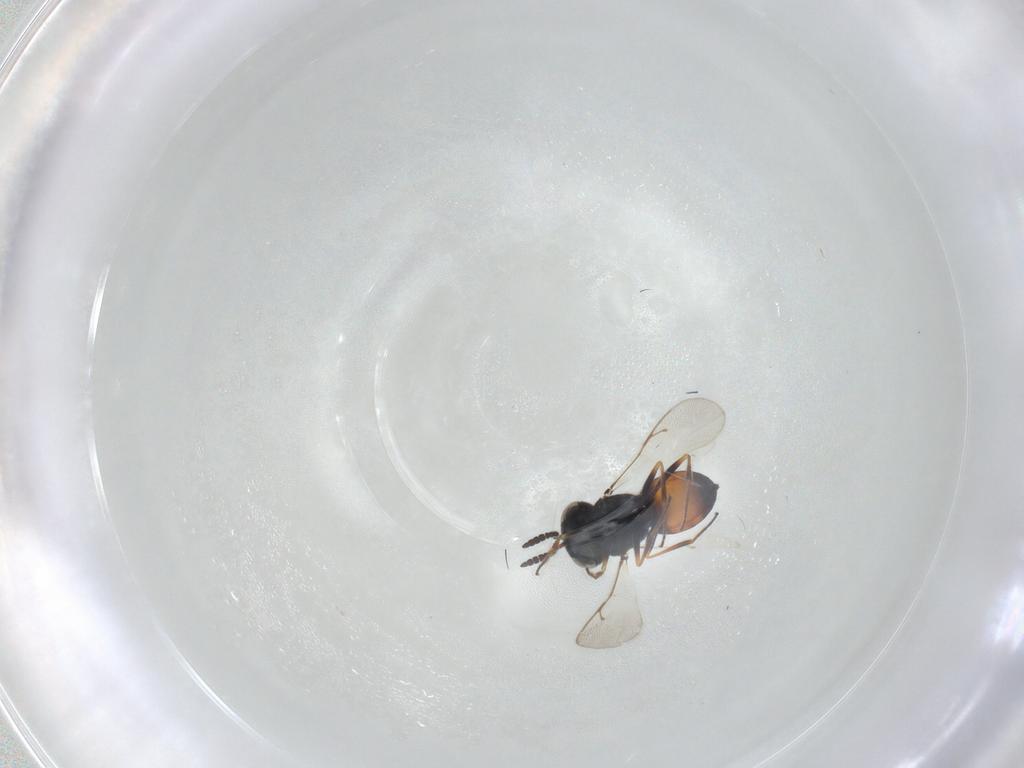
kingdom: Animalia
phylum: Arthropoda
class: Insecta
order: Hymenoptera
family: Scelionidae
